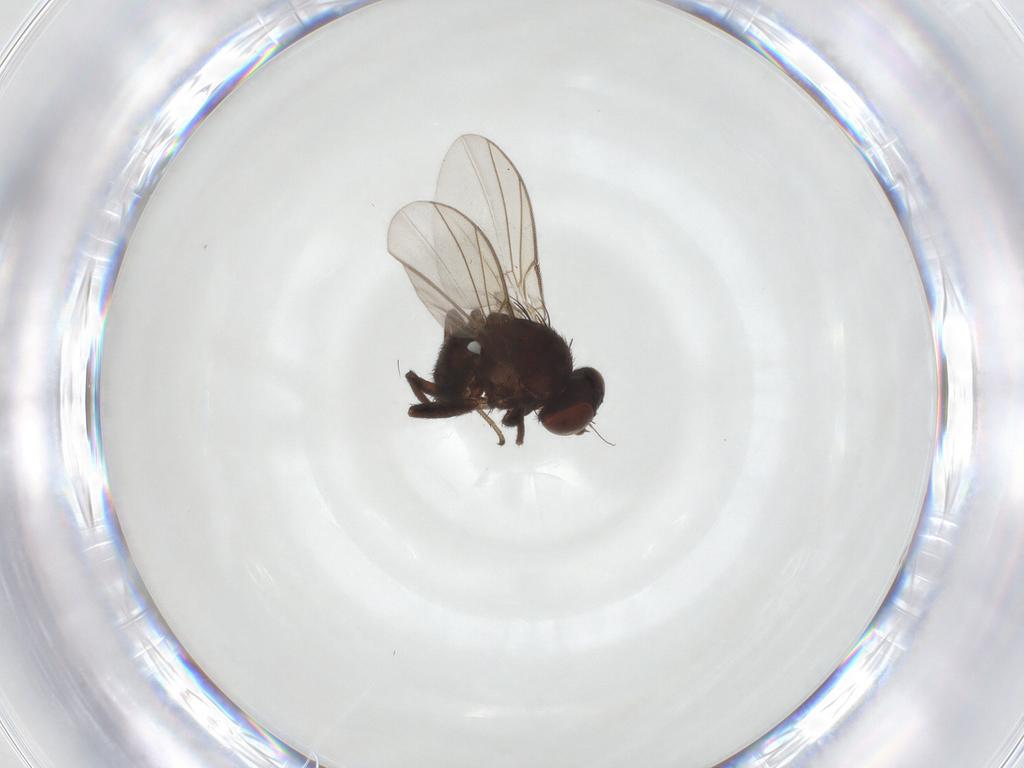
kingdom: Animalia
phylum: Arthropoda
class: Insecta
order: Diptera
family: Agromyzidae
